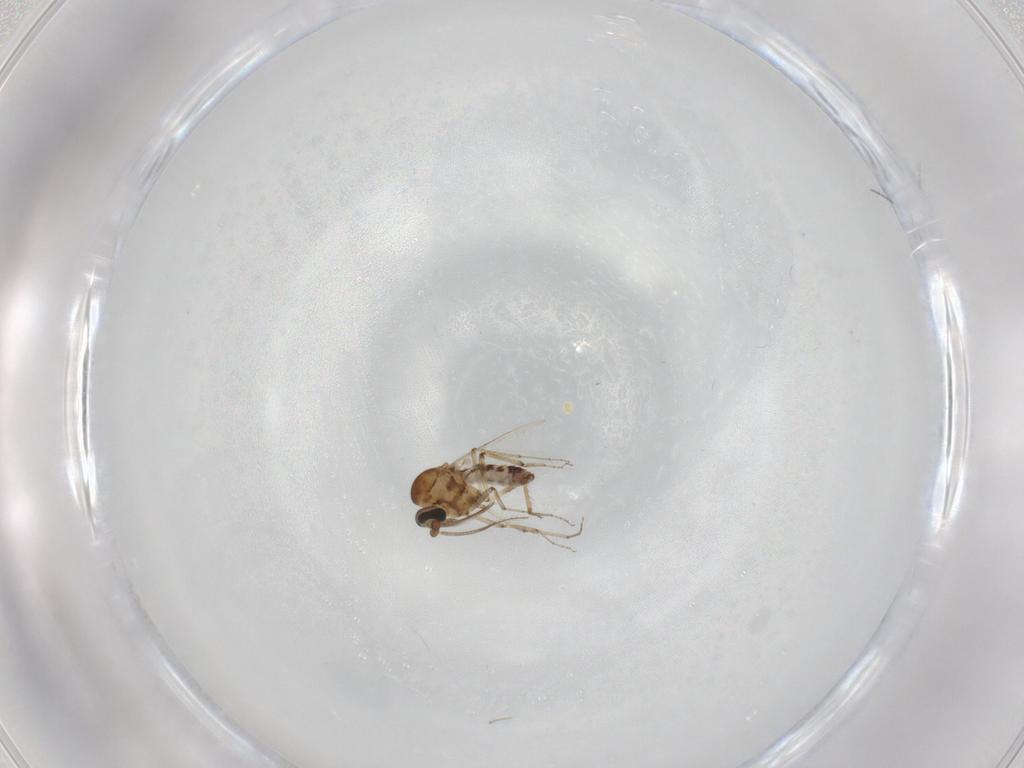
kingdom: Animalia
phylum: Arthropoda
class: Insecta
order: Diptera
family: Ceratopogonidae
